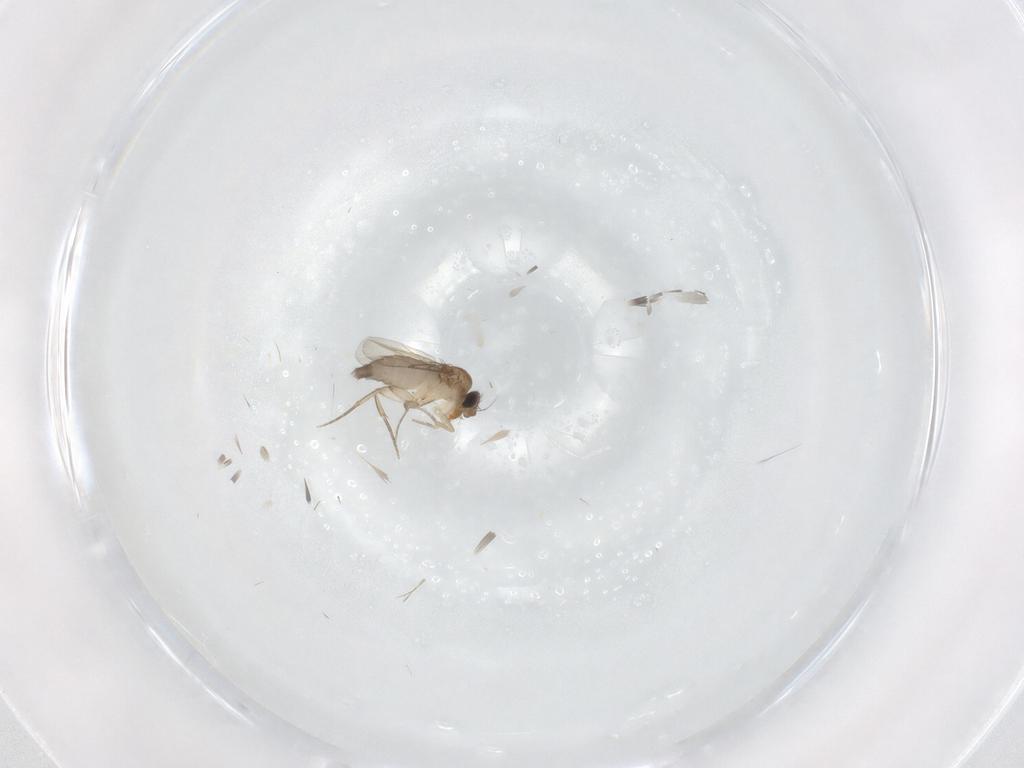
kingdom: Animalia
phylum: Arthropoda
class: Insecta
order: Diptera
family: Phoridae
